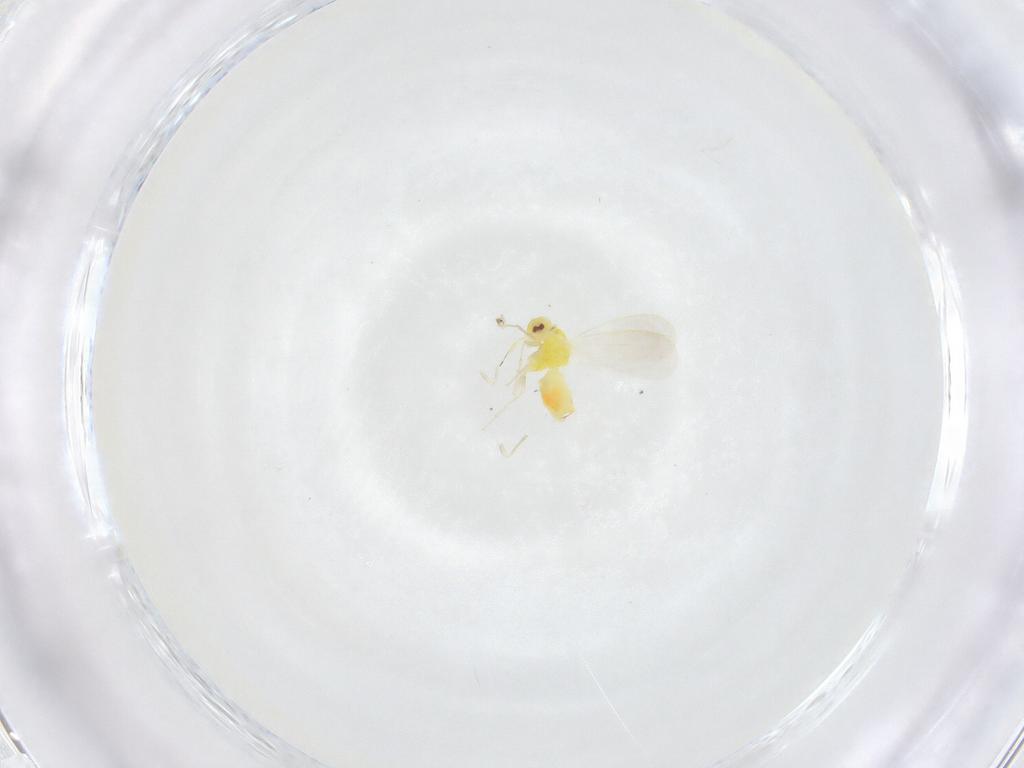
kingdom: Animalia
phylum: Arthropoda
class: Insecta
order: Hemiptera
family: Aleyrodidae
